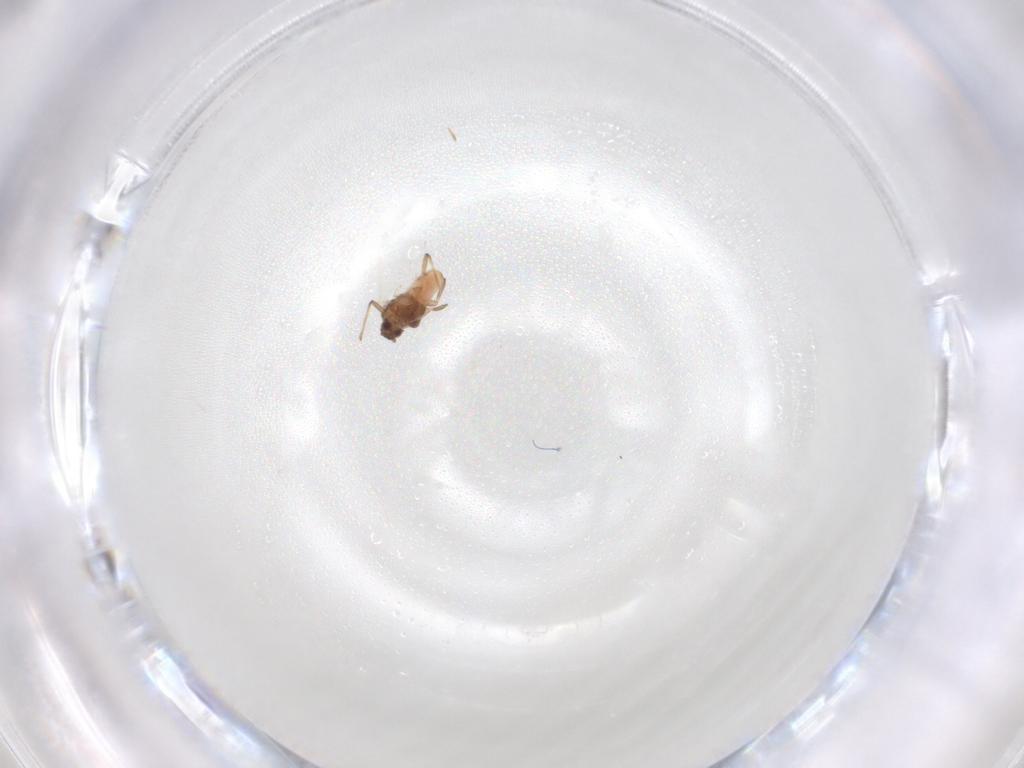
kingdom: Animalia
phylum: Arthropoda
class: Insecta
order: Hemiptera
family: Aphididae
